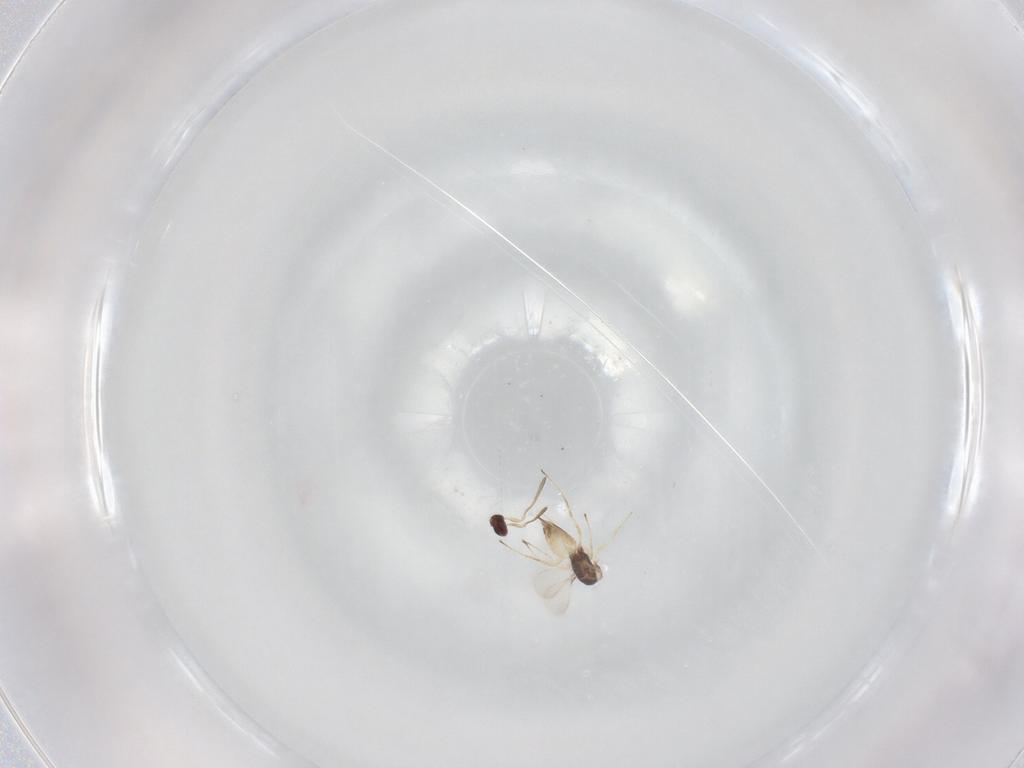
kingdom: Animalia
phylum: Arthropoda
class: Insecta
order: Hymenoptera
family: Mymaridae
